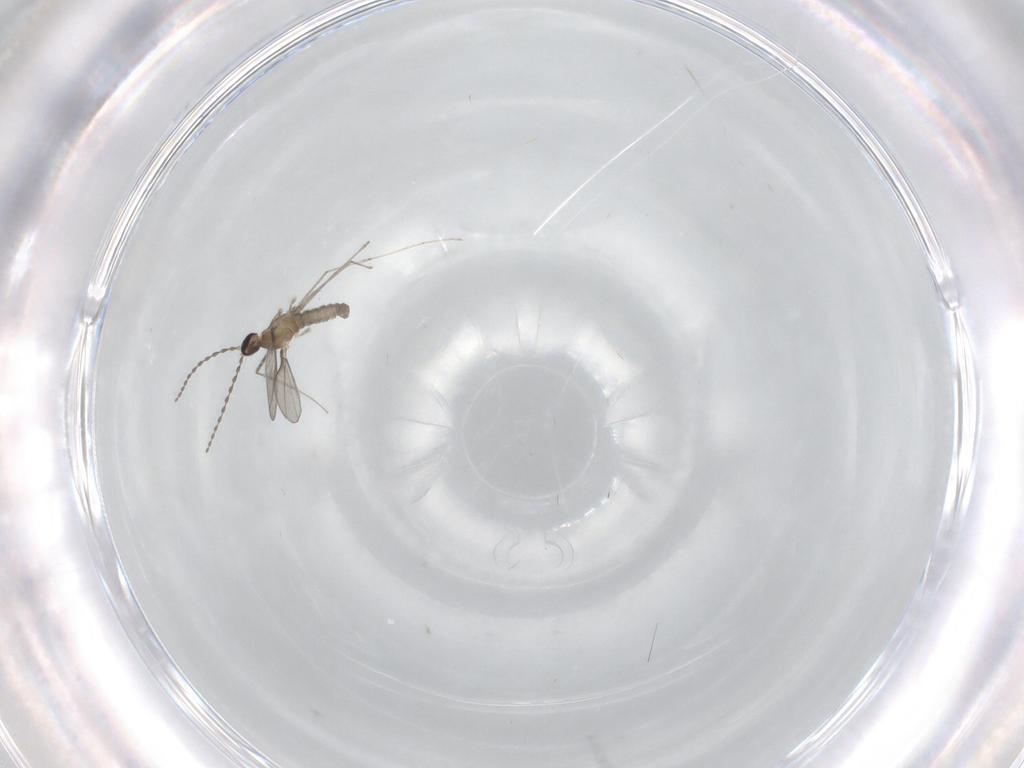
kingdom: Animalia
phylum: Arthropoda
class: Insecta
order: Diptera
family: Cecidomyiidae
